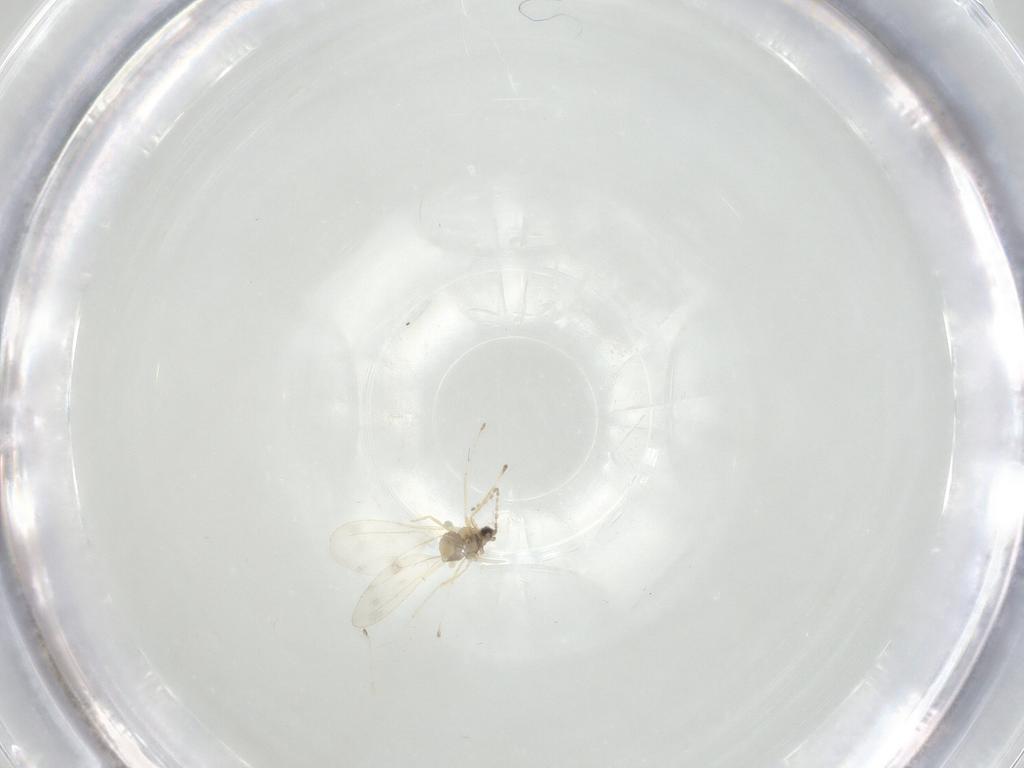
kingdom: Animalia
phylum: Arthropoda
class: Insecta
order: Diptera
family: Cecidomyiidae
